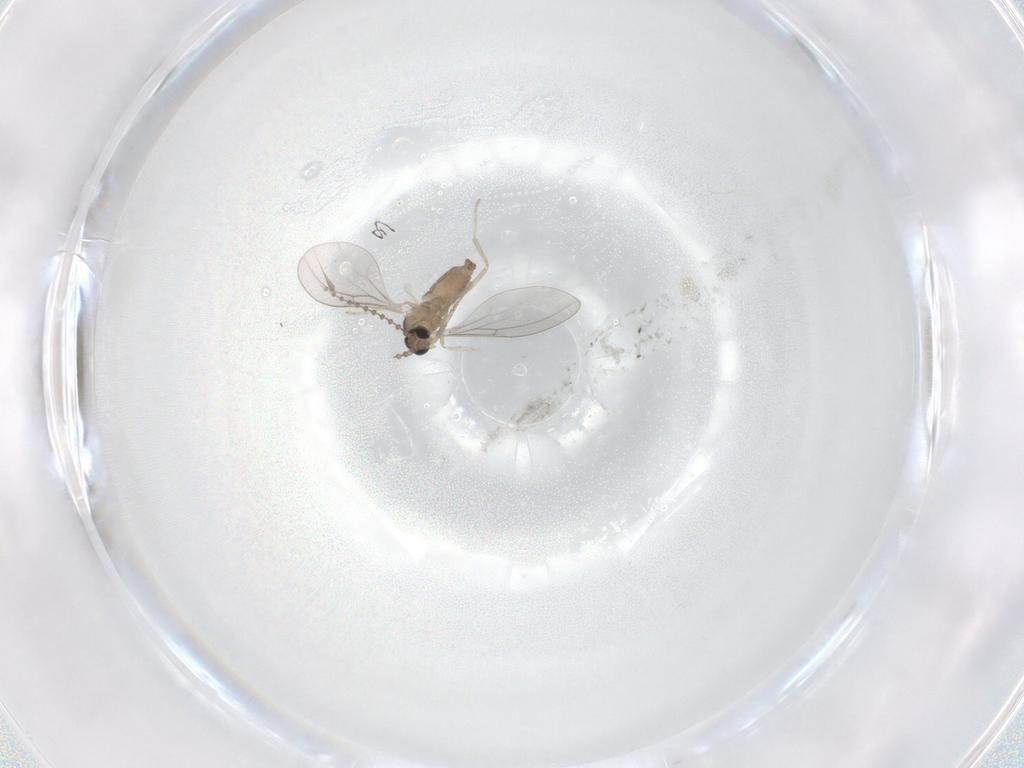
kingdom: Animalia
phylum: Arthropoda
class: Insecta
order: Diptera
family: Cecidomyiidae
